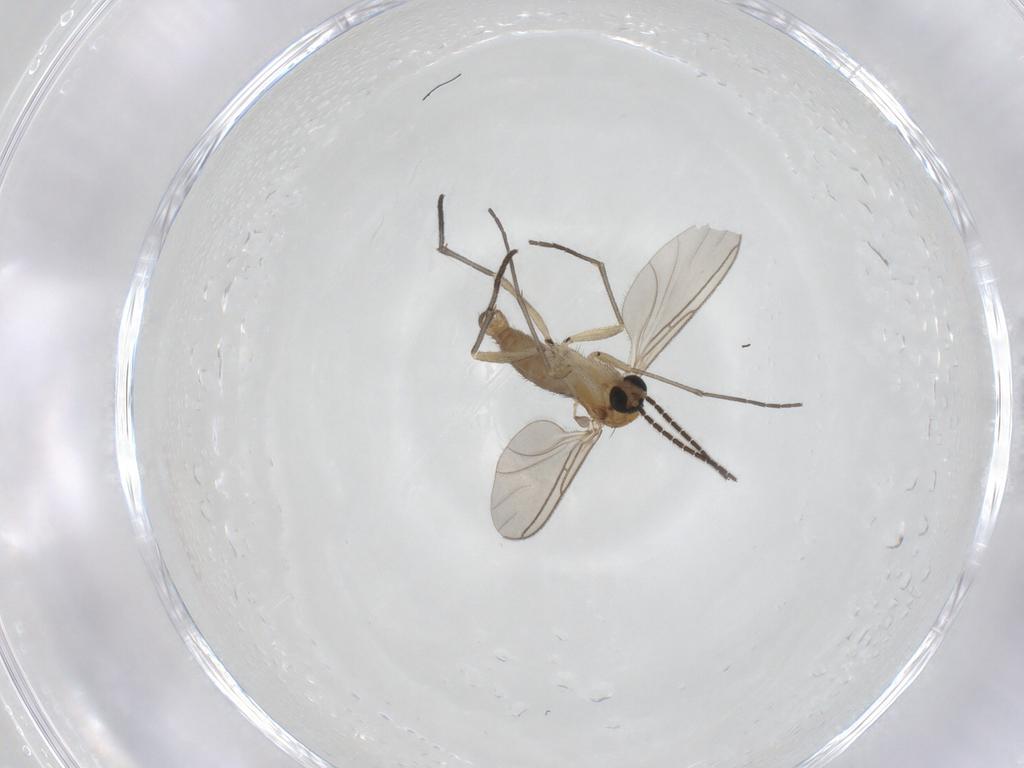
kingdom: Animalia
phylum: Arthropoda
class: Insecta
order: Diptera
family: Sciaridae
